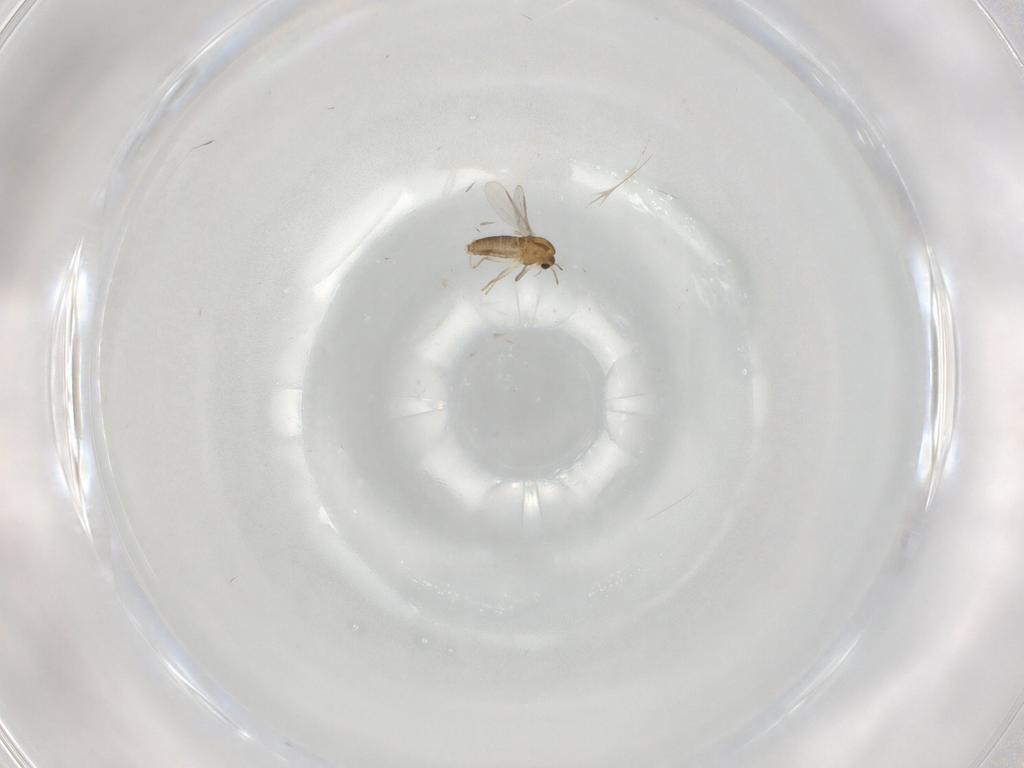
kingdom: Animalia
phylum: Arthropoda
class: Insecta
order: Diptera
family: Chironomidae
